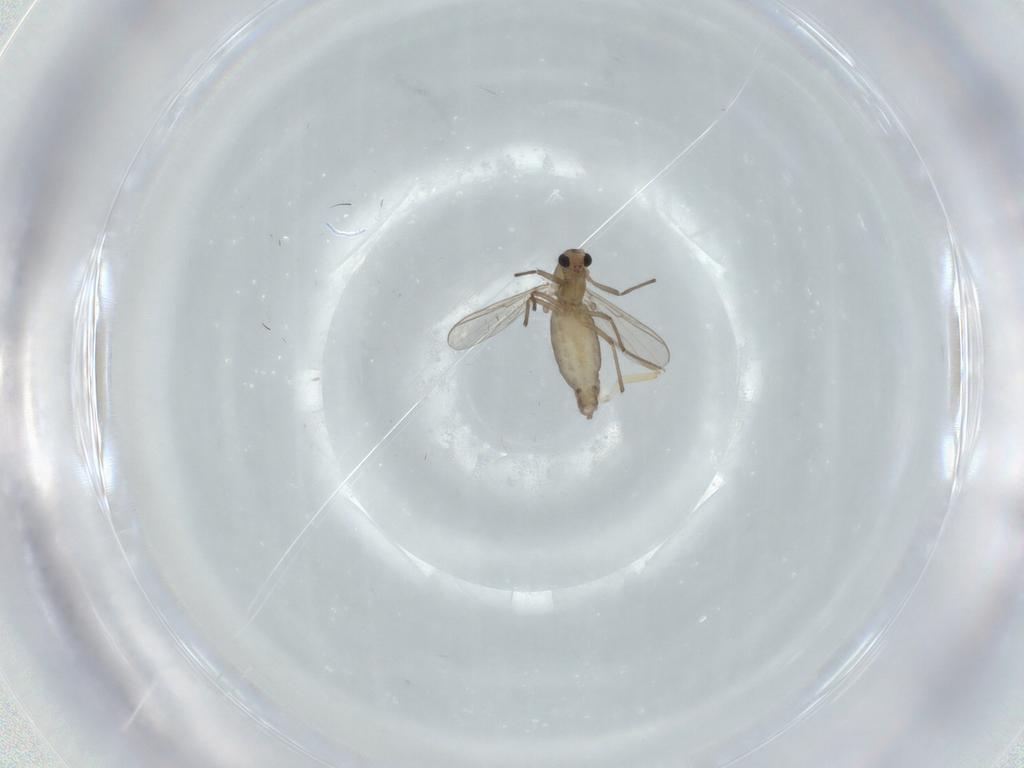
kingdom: Animalia
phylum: Arthropoda
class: Insecta
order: Diptera
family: Chironomidae
